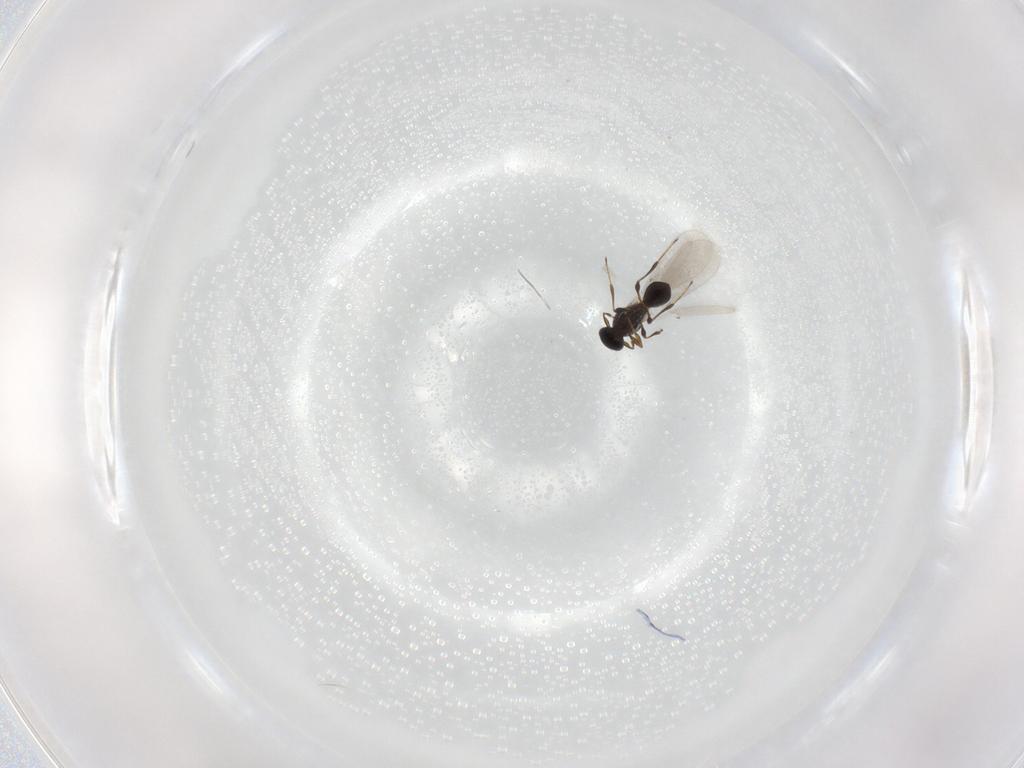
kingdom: Animalia
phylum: Arthropoda
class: Insecta
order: Hymenoptera
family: Platygastridae
